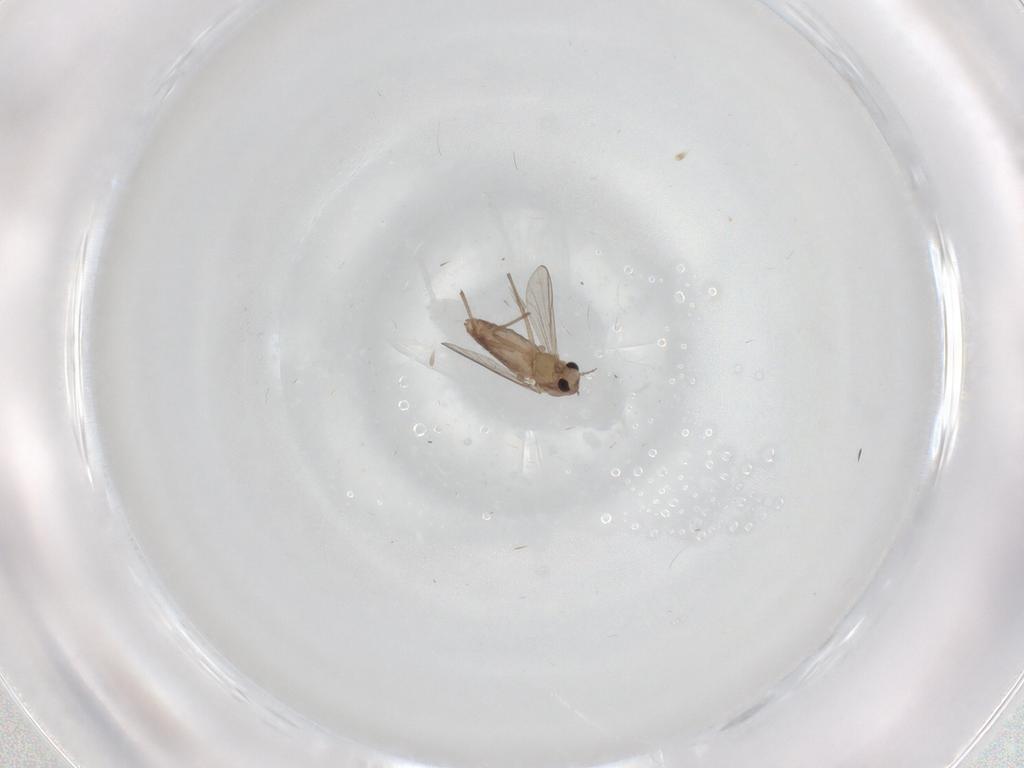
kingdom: Animalia
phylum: Arthropoda
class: Insecta
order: Diptera
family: Chironomidae
